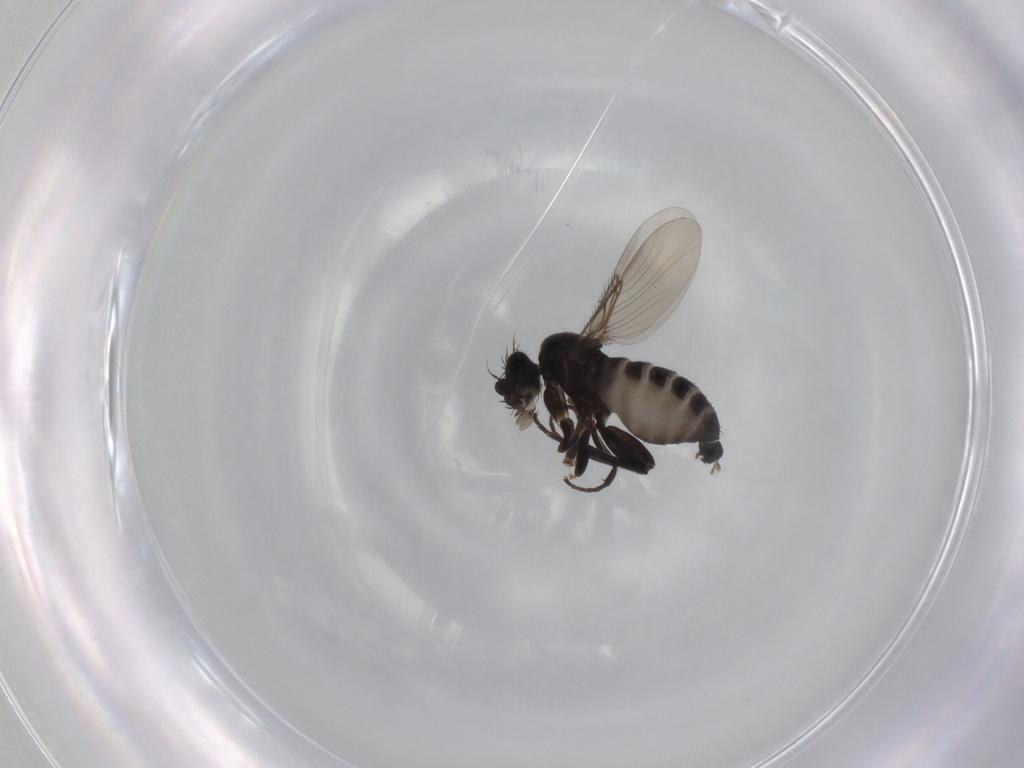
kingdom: Animalia
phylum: Arthropoda
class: Insecta
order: Diptera
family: Phoridae
